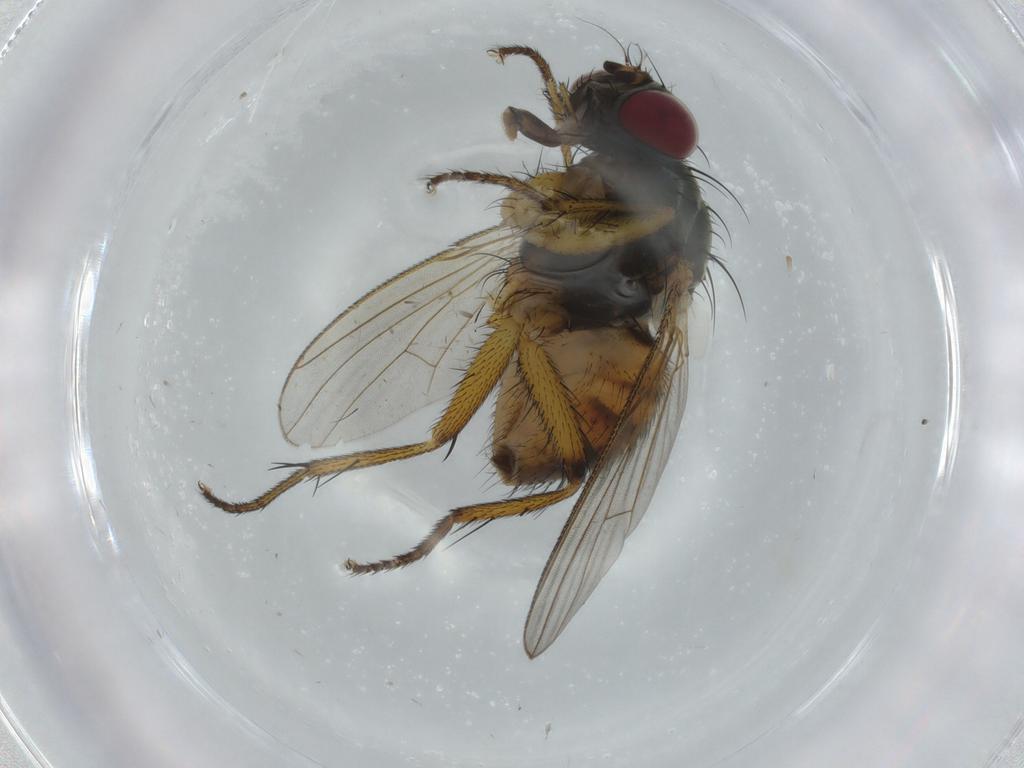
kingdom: Animalia
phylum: Arthropoda
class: Insecta
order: Diptera
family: Muscidae
